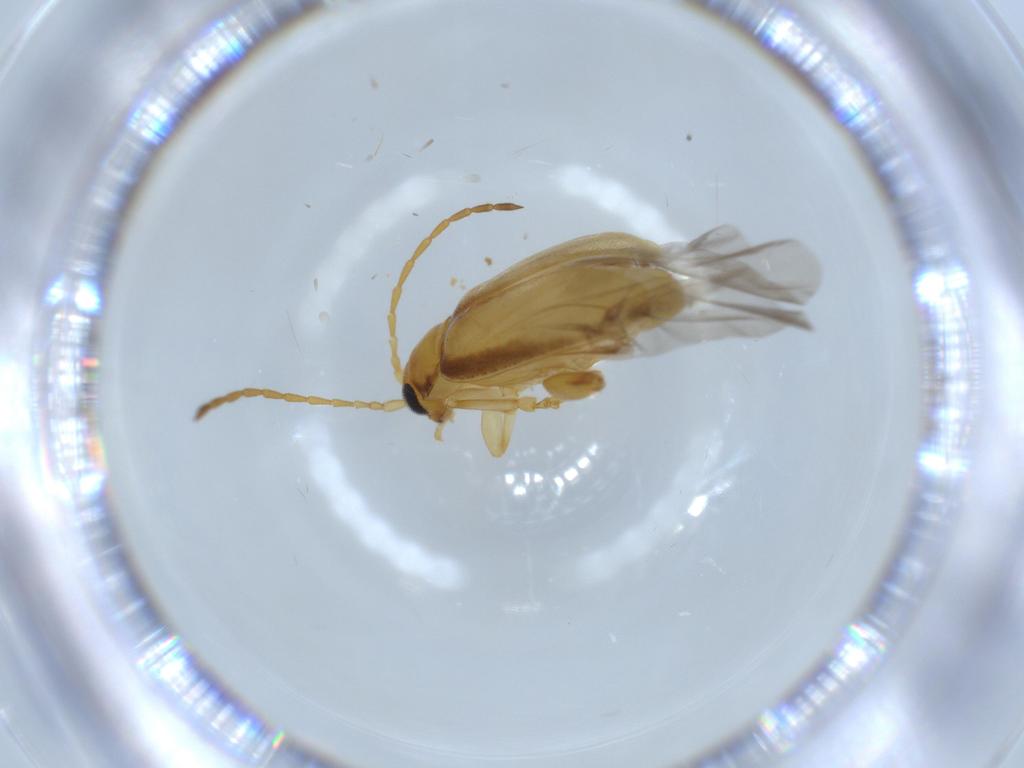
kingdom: Animalia
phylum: Arthropoda
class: Insecta
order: Coleoptera
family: Chrysomelidae
